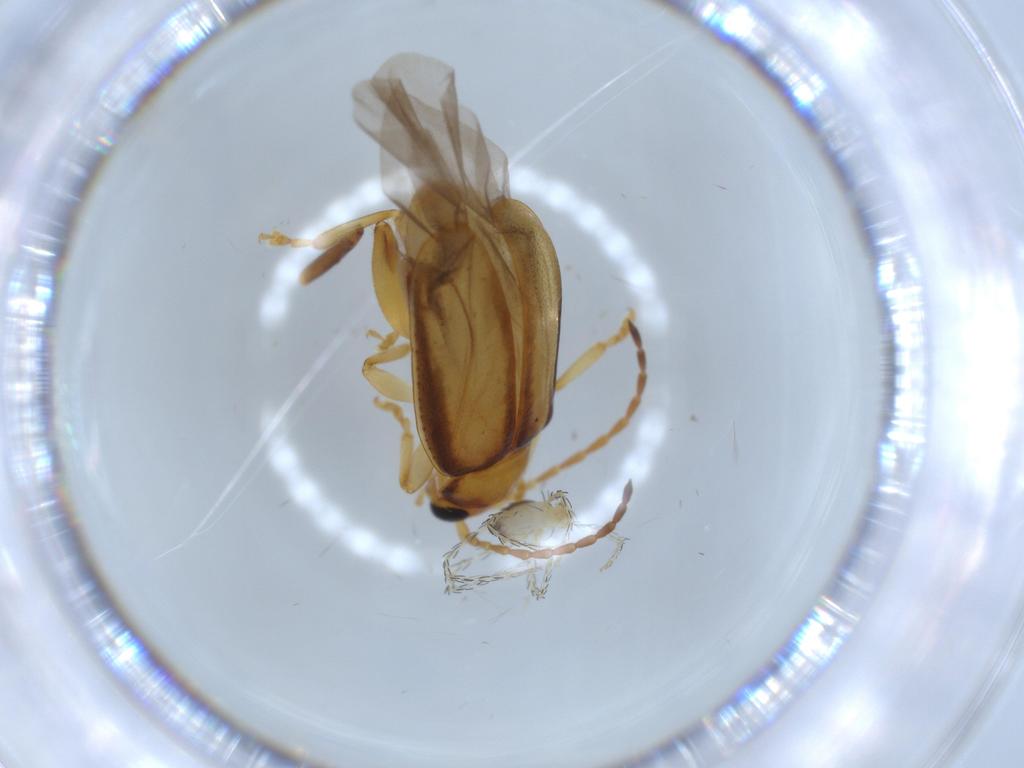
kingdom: Animalia
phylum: Arthropoda
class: Insecta
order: Coleoptera
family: Chrysomelidae
